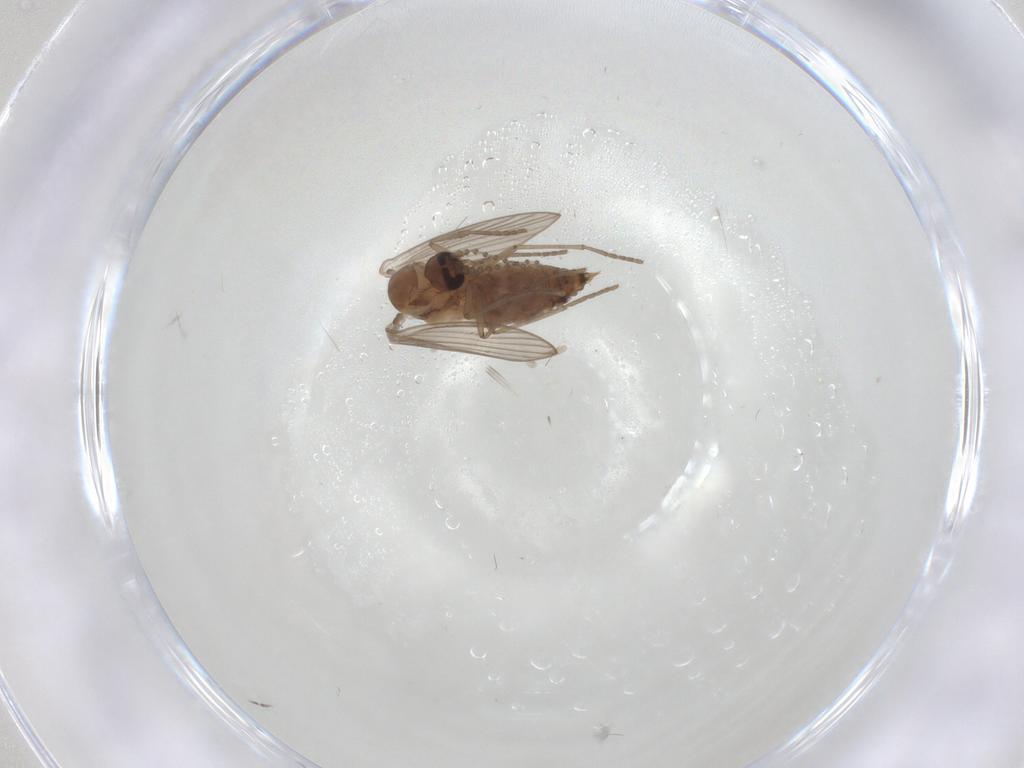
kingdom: Animalia
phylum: Arthropoda
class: Insecta
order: Diptera
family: Psychodidae
